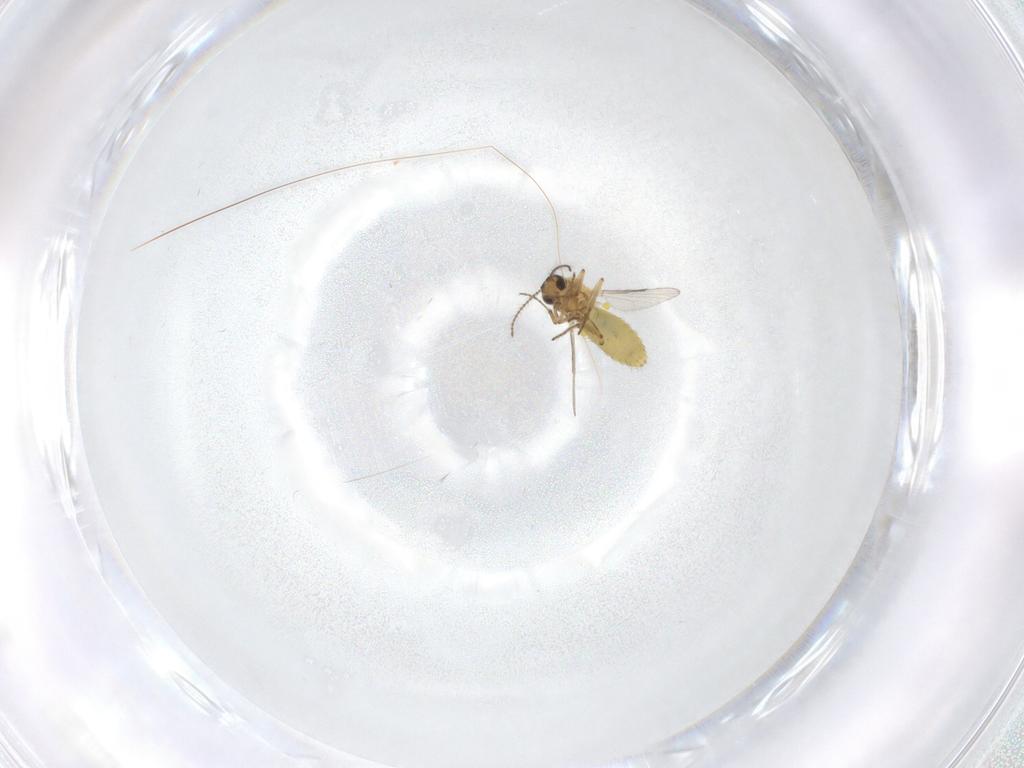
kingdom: Animalia
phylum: Arthropoda
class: Insecta
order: Diptera
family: Ceratopogonidae
